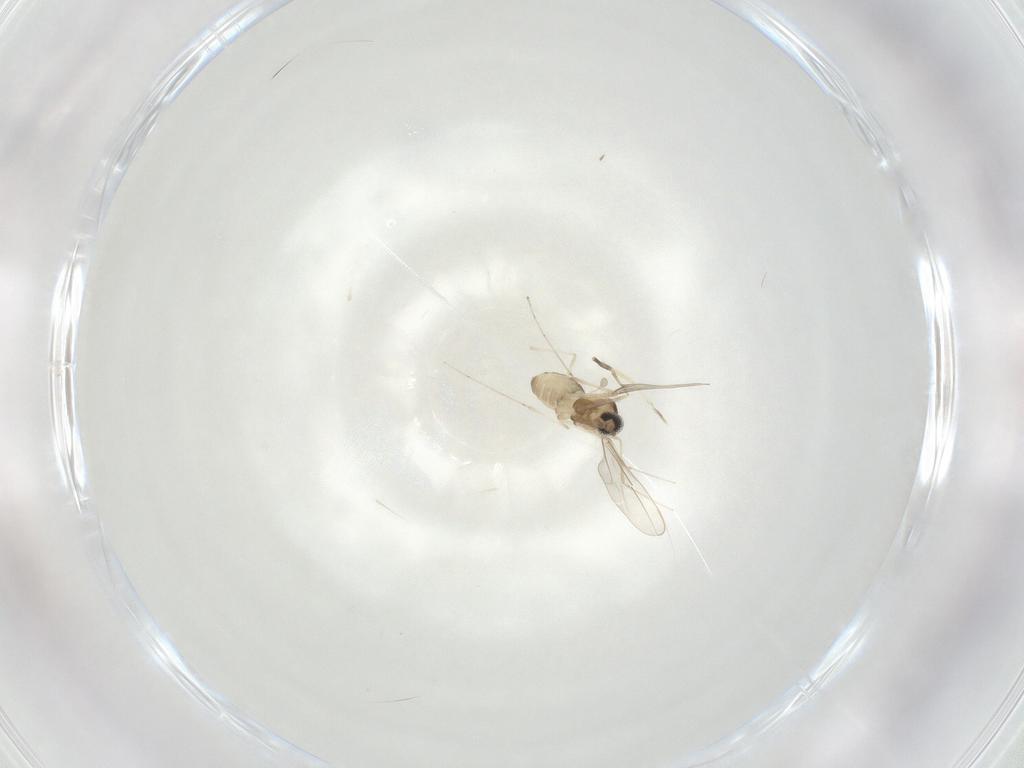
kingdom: Animalia
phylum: Arthropoda
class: Insecta
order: Diptera
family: Cecidomyiidae
